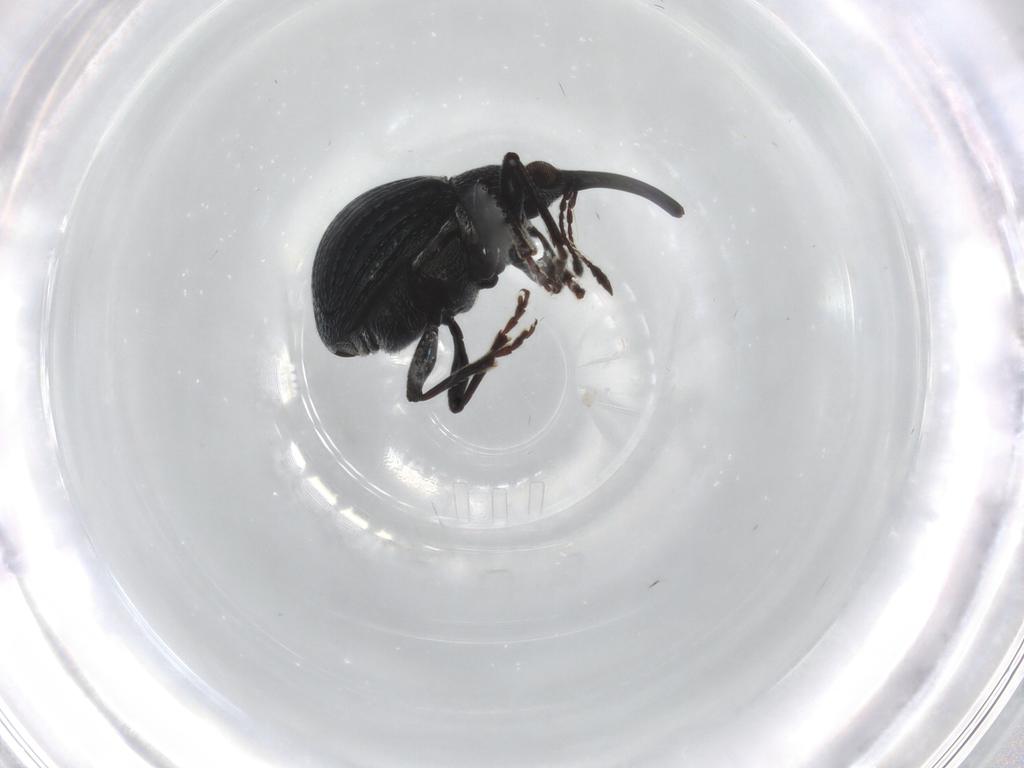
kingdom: Animalia
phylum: Arthropoda
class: Insecta
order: Coleoptera
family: Brentidae
